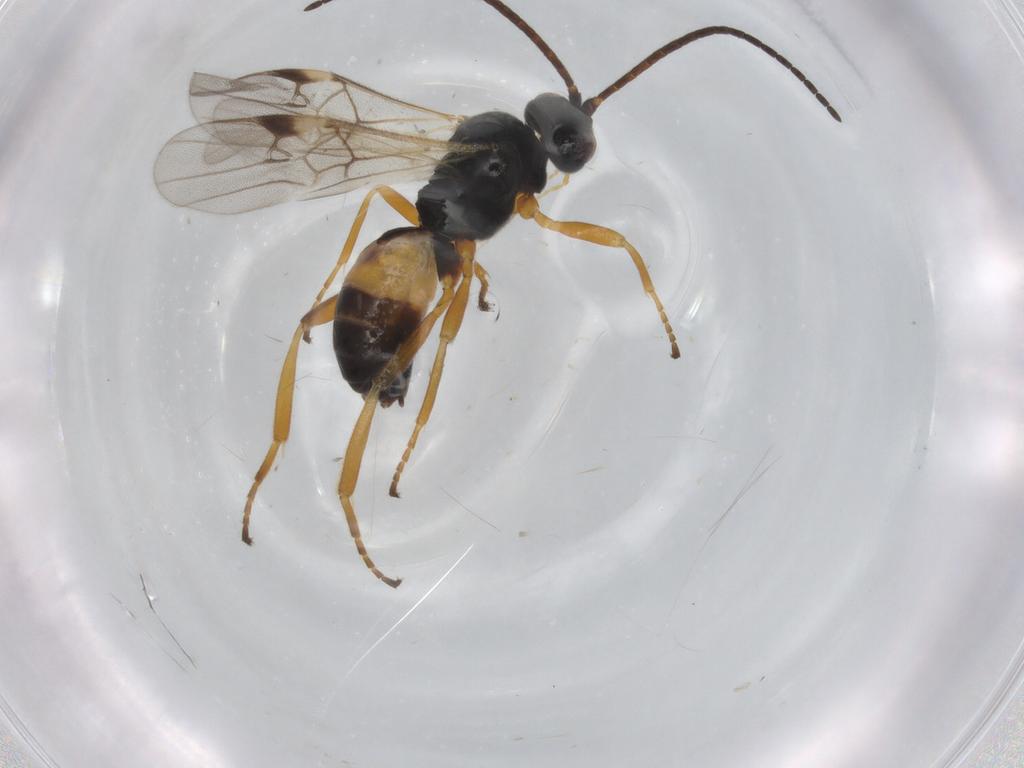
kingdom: Animalia
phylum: Arthropoda
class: Insecta
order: Hymenoptera
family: Braconidae
